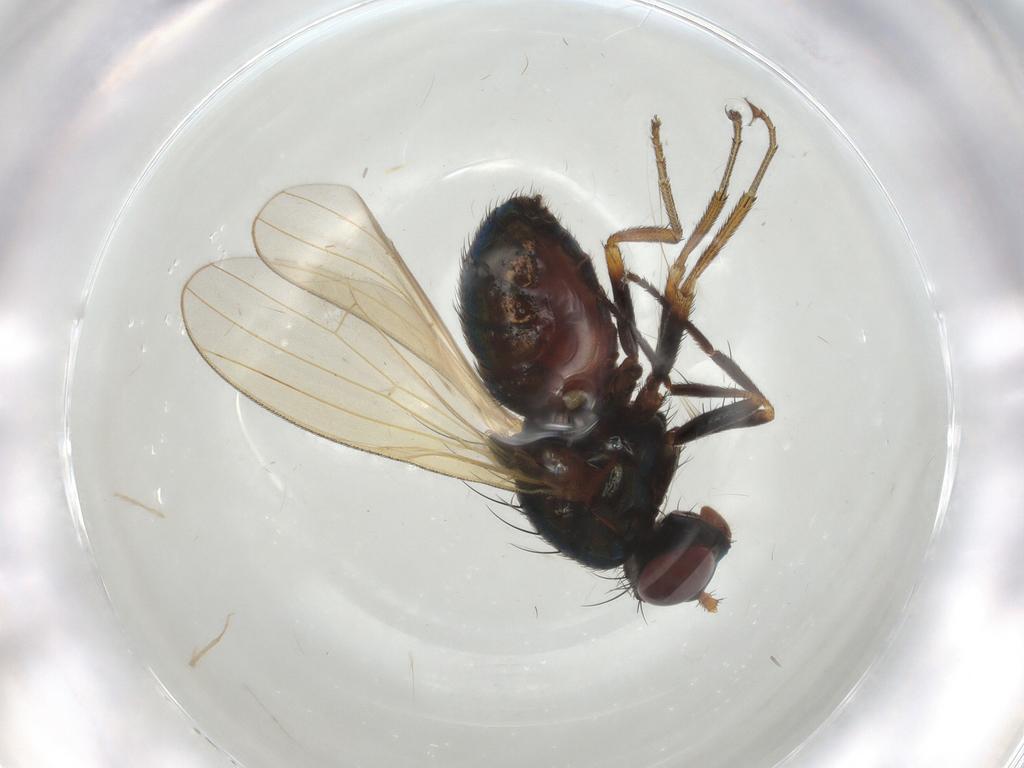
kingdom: Animalia
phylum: Arthropoda
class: Insecta
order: Diptera
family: Lauxaniidae
